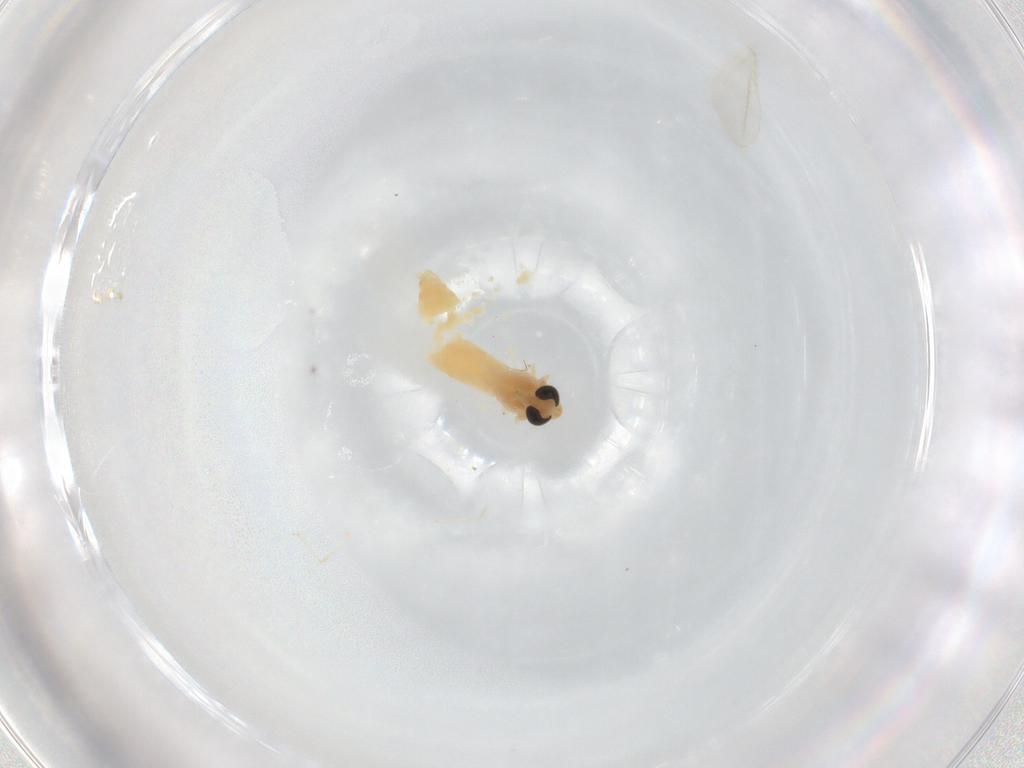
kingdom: Animalia
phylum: Arthropoda
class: Insecta
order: Diptera
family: Chironomidae
